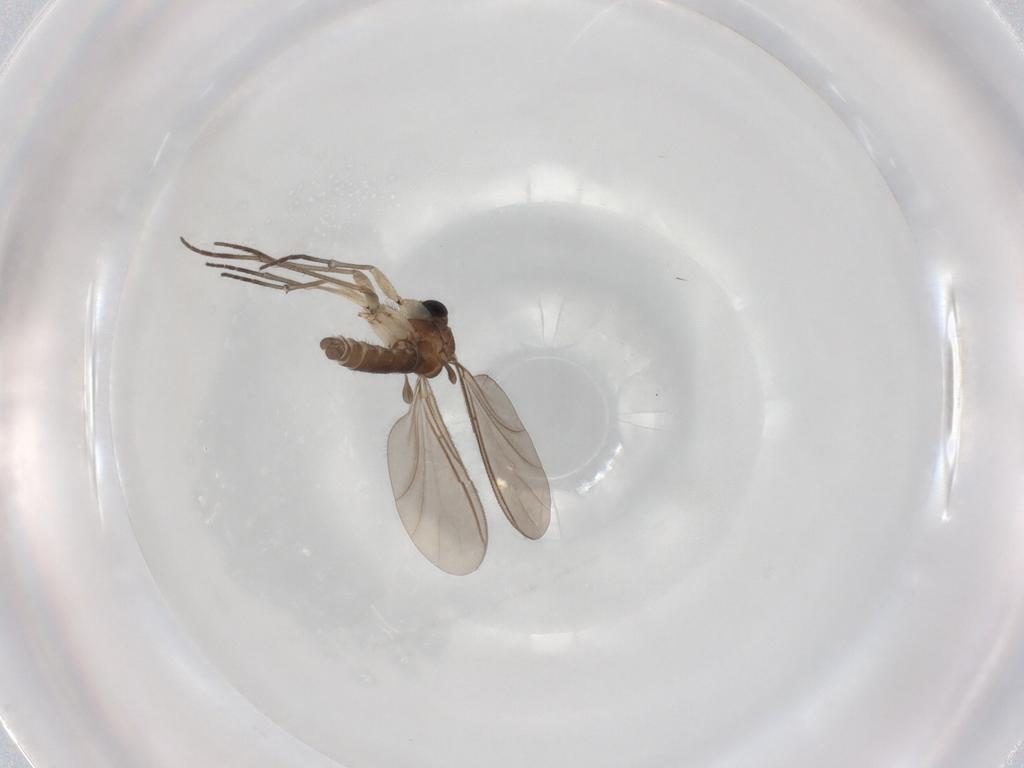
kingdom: Animalia
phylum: Arthropoda
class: Insecta
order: Diptera
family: Sciaridae
